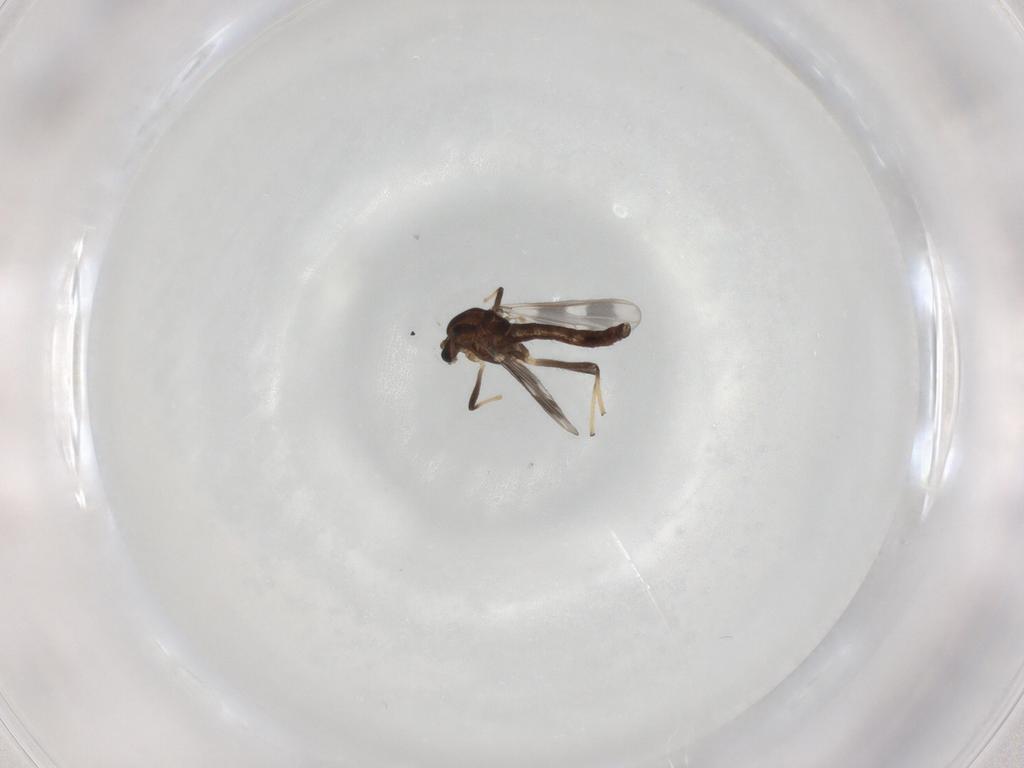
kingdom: Animalia
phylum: Arthropoda
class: Insecta
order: Diptera
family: Chironomidae
